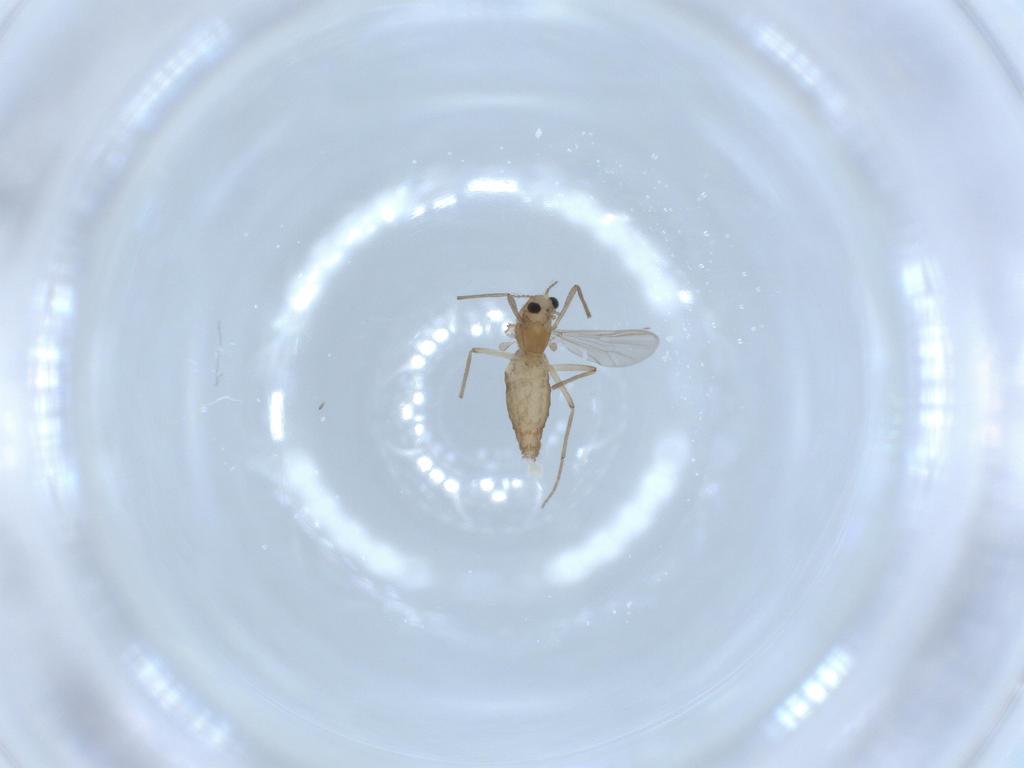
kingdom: Animalia
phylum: Arthropoda
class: Insecta
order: Diptera
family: Chironomidae
